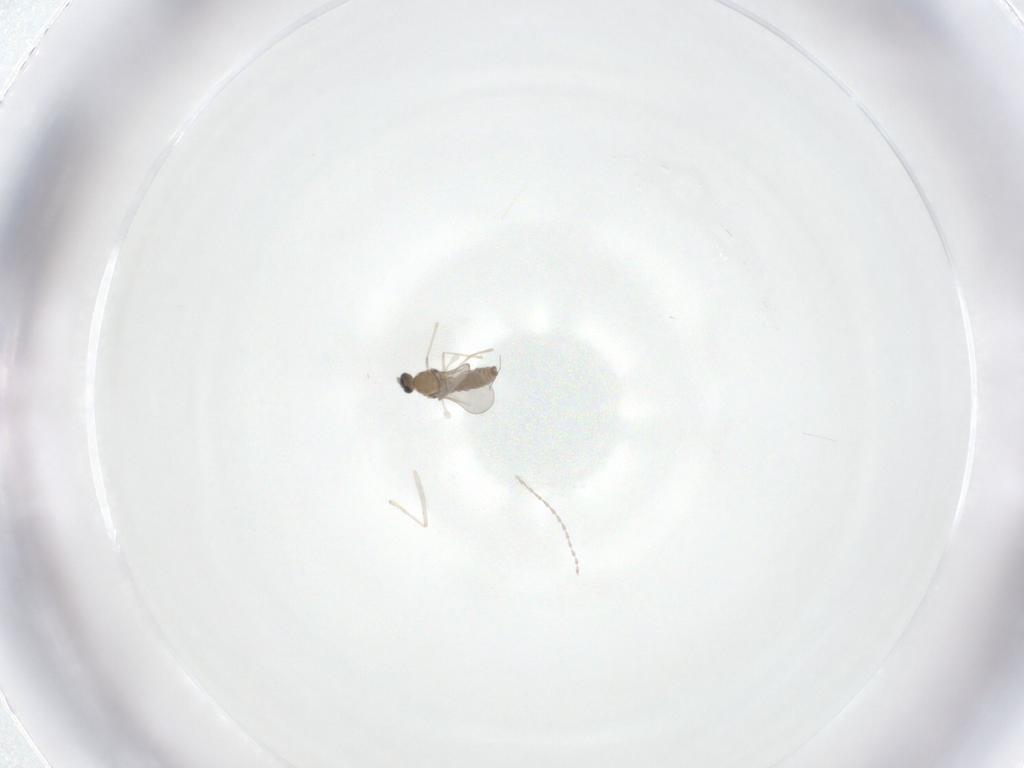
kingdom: Animalia
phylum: Arthropoda
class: Insecta
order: Diptera
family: Chironomidae
